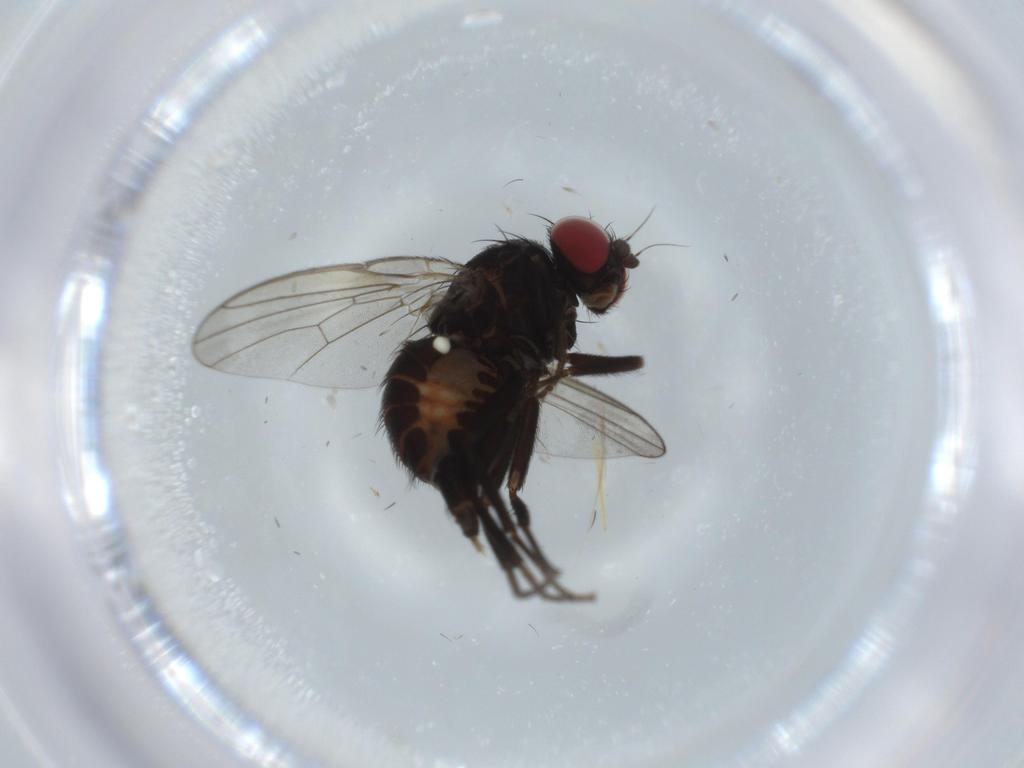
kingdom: Animalia
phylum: Arthropoda
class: Insecta
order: Diptera
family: Agromyzidae
